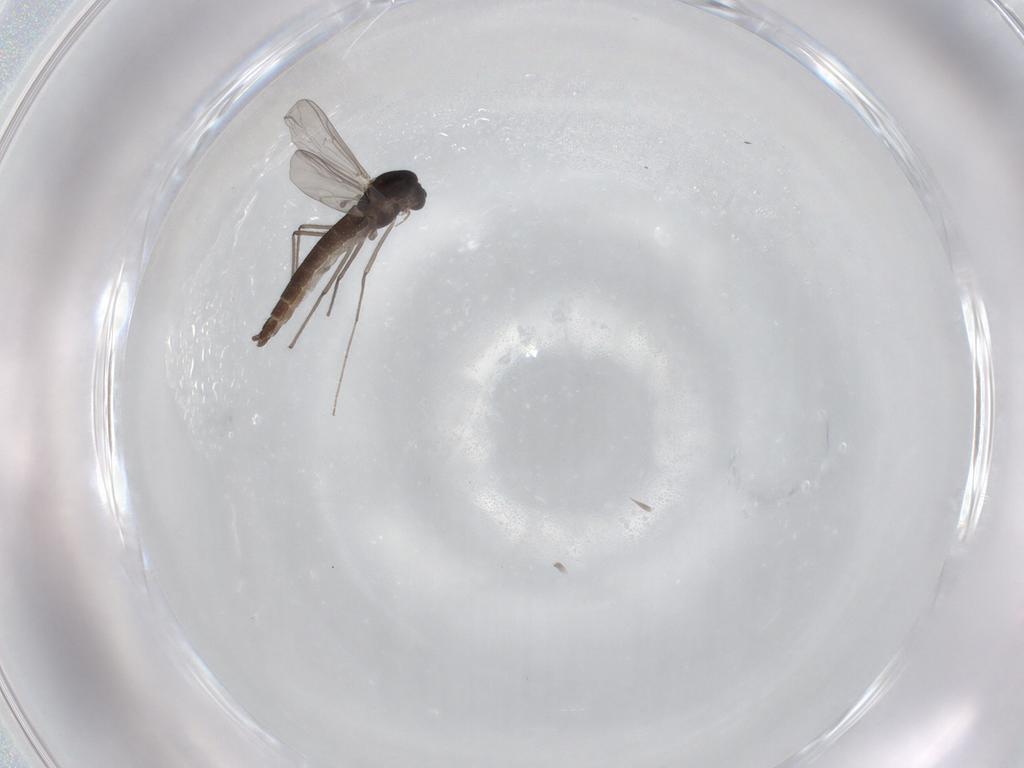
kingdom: Animalia
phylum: Arthropoda
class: Insecta
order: Diptera
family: Chironomidae
